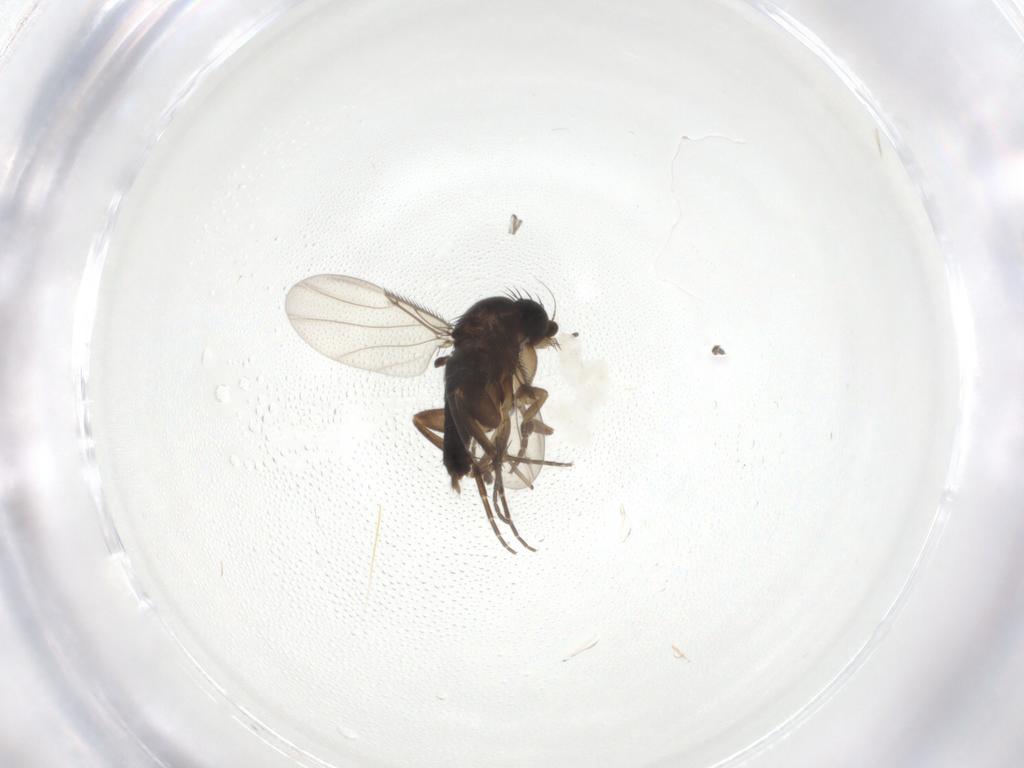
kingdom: Animalia
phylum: Arthropoda
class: Insecta
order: Diptera
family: Phoridae
